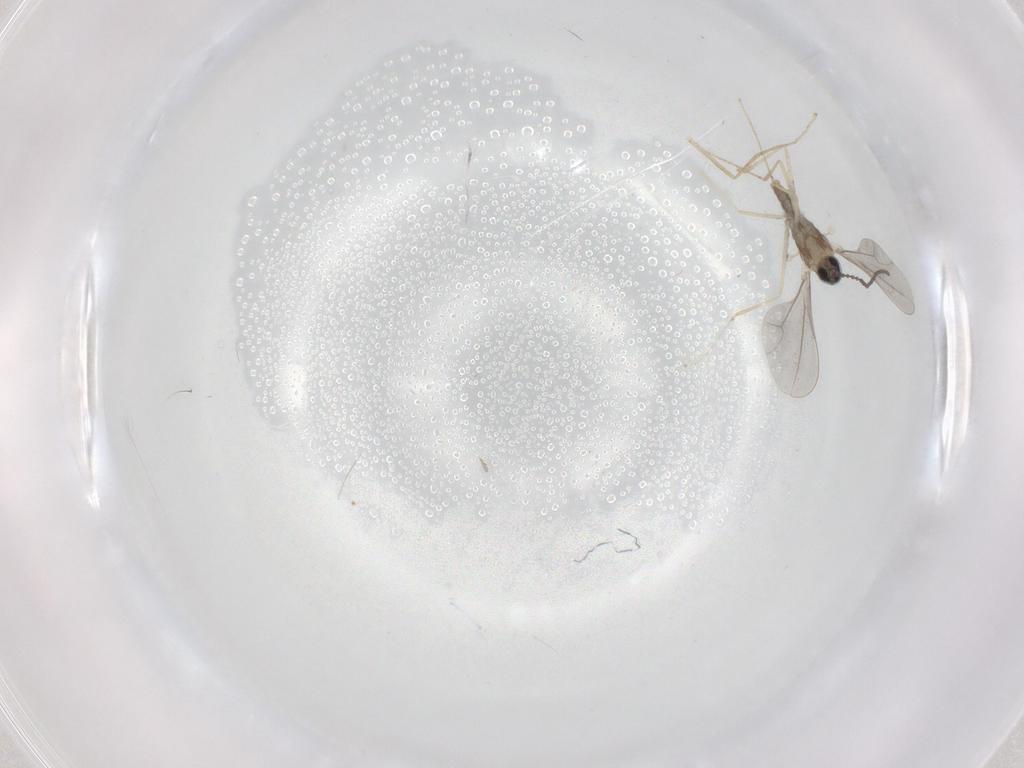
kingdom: Animalia
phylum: Arthropoda
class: Insecta
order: Diptera
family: Cecidomyiidae
